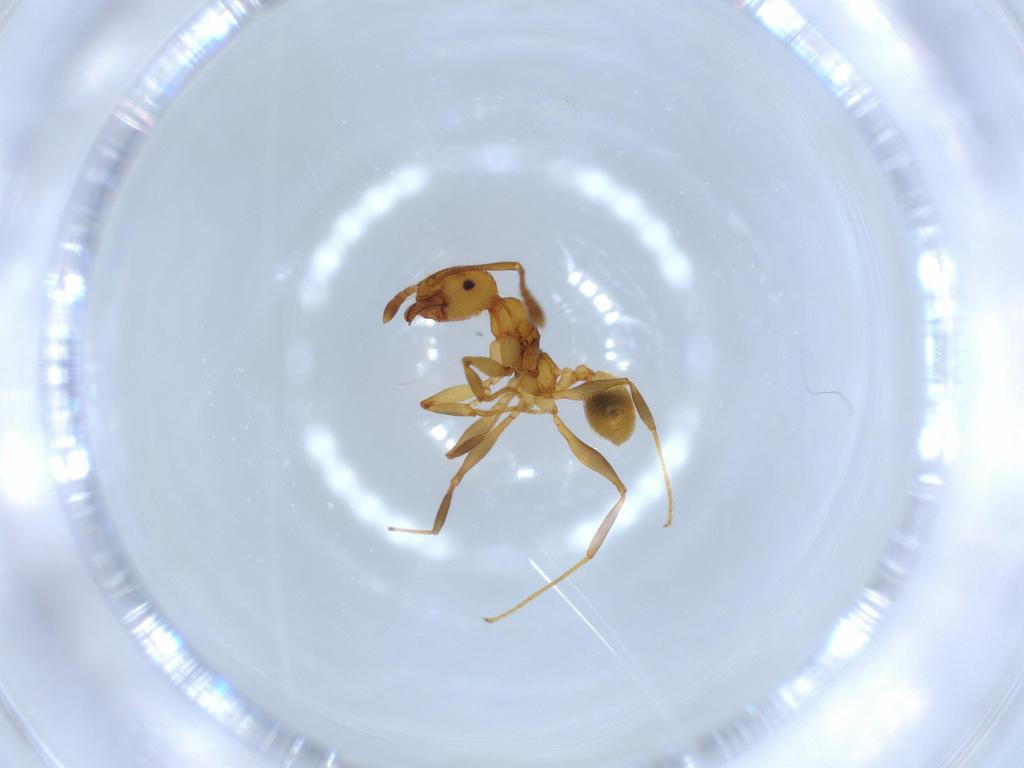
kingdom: Animalia
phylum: Arthropoda
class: Insecta
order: Hymenoptera
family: Formicidae
